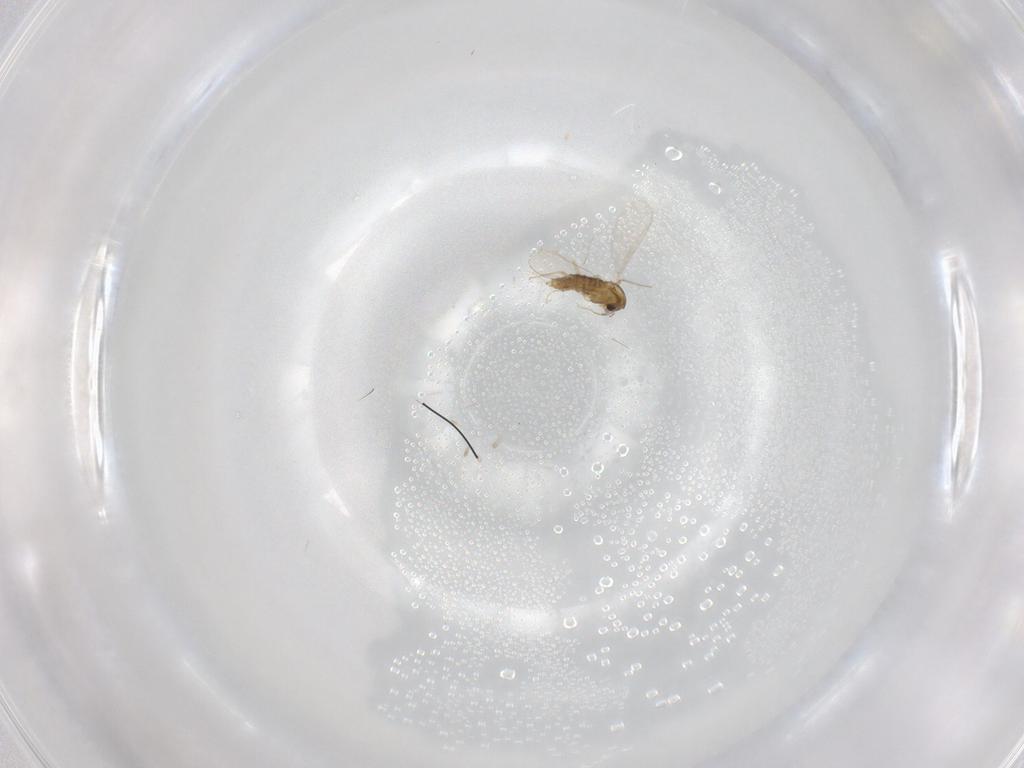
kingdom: Animalia
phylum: Arthropoda
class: Insecta
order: Diptera
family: Chironomidae
